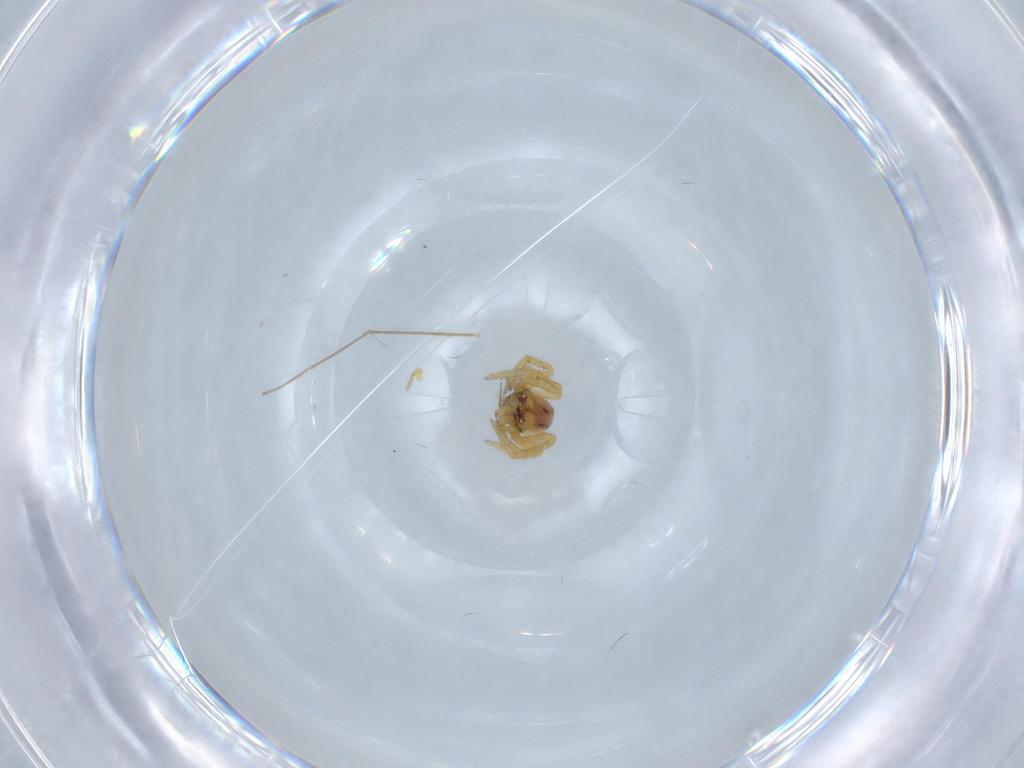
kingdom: Animalia
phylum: Arthropoda
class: Arachnida
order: Araneae
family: Theridiidae
